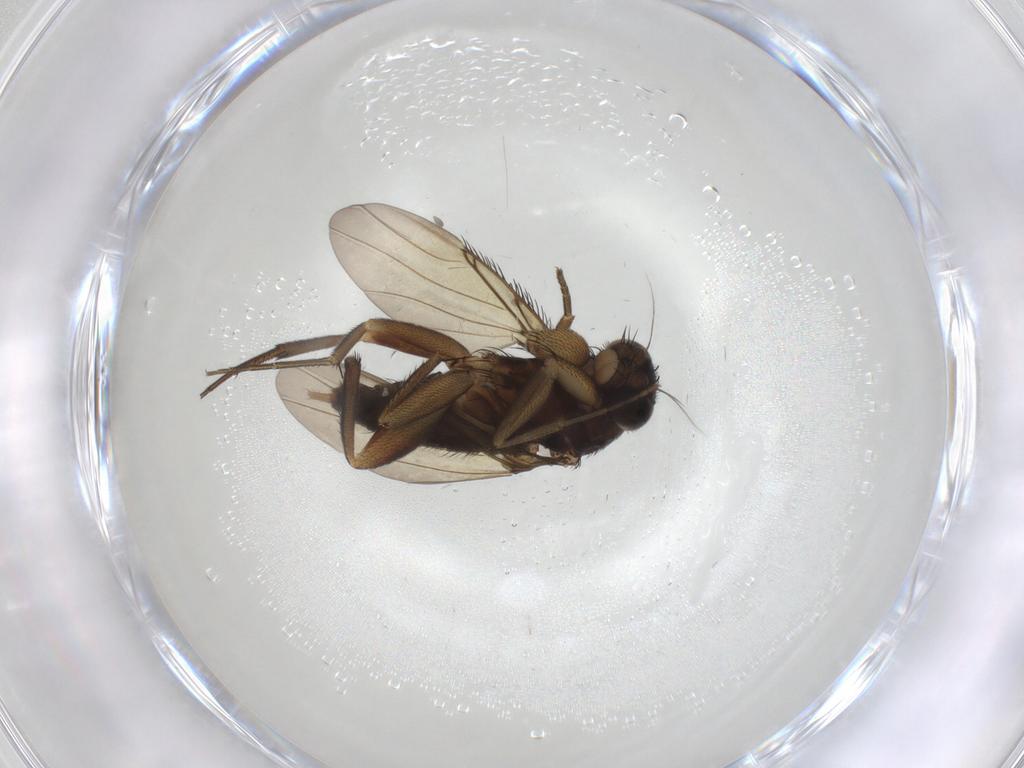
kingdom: Animalia
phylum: Arthropoda
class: Insecta
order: Diptera
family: Phoridae
